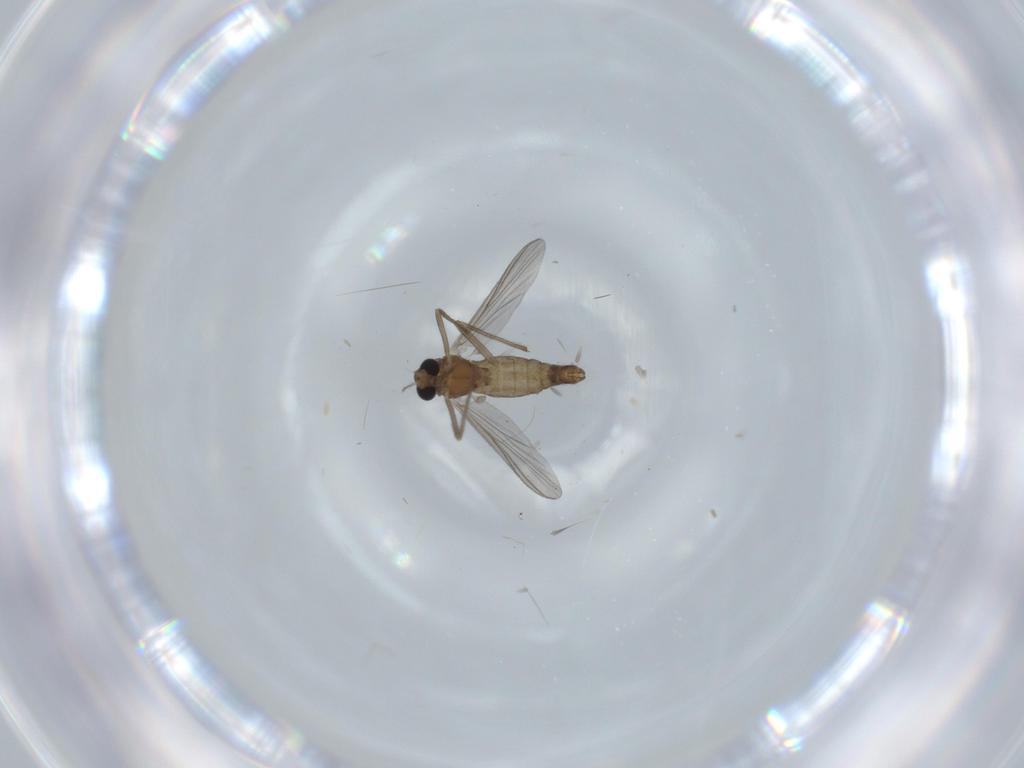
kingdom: Animalia
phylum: Arthropoda
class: Insecta
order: Diptera
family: Chironomidae
